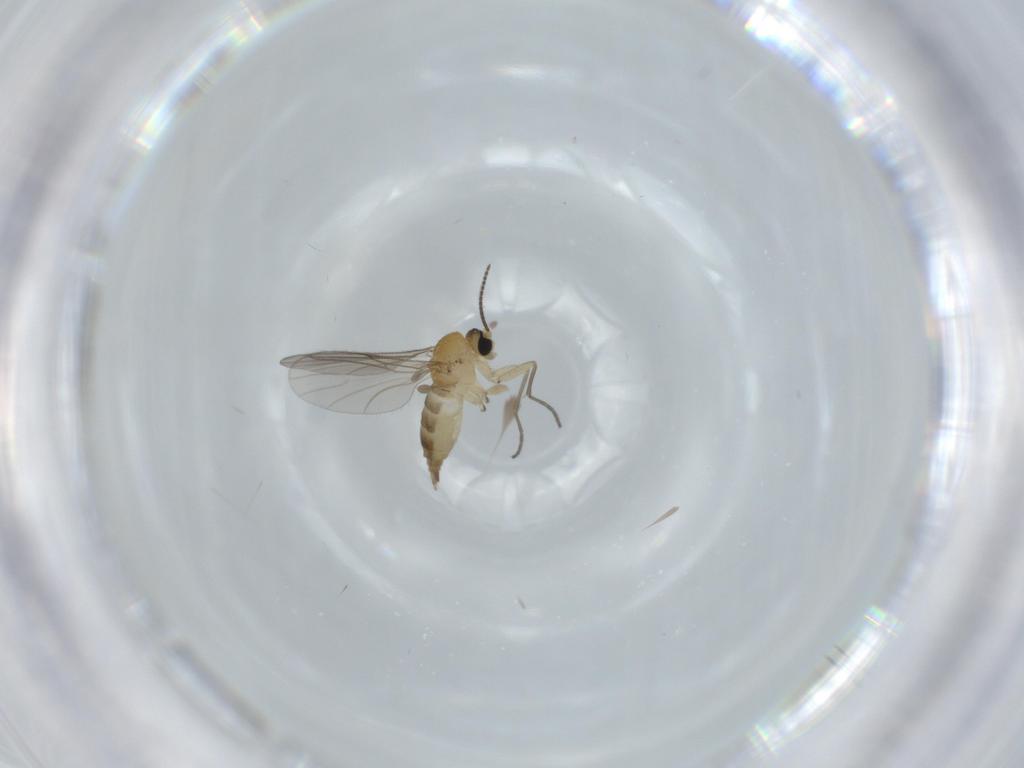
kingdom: Animalia
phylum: Arthropoda
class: Insecta
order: Diptera
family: Sciaridae
